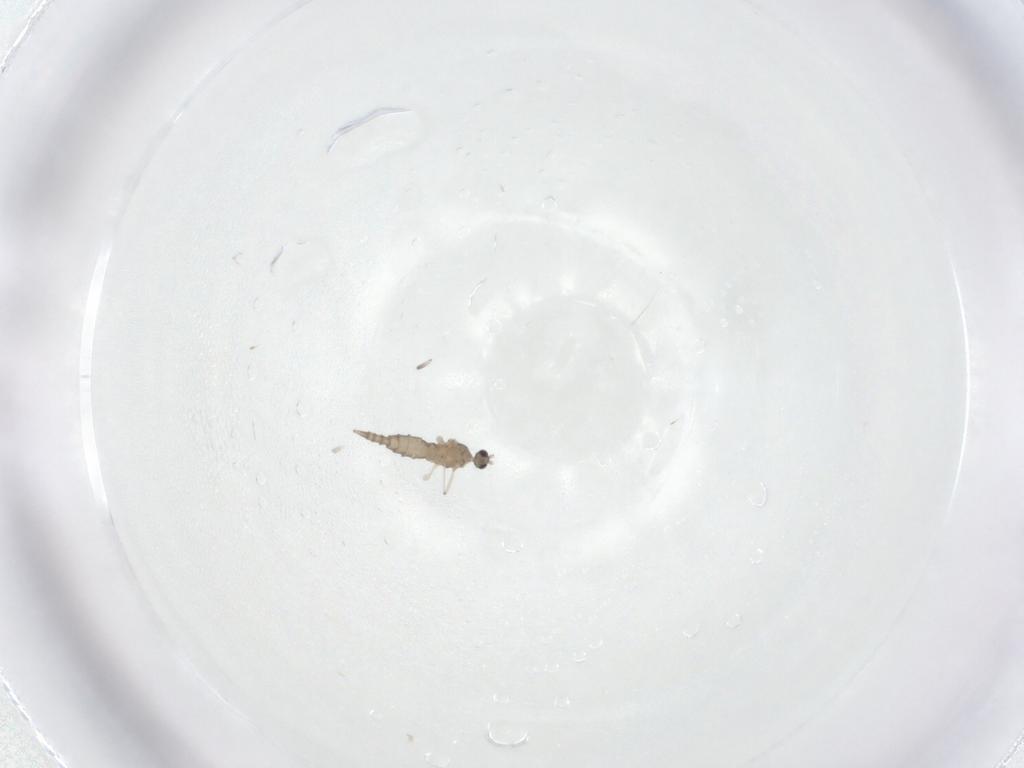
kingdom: Animalia
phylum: Arthropoda
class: Insecta
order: Diptera
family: Cecidomyiidae
